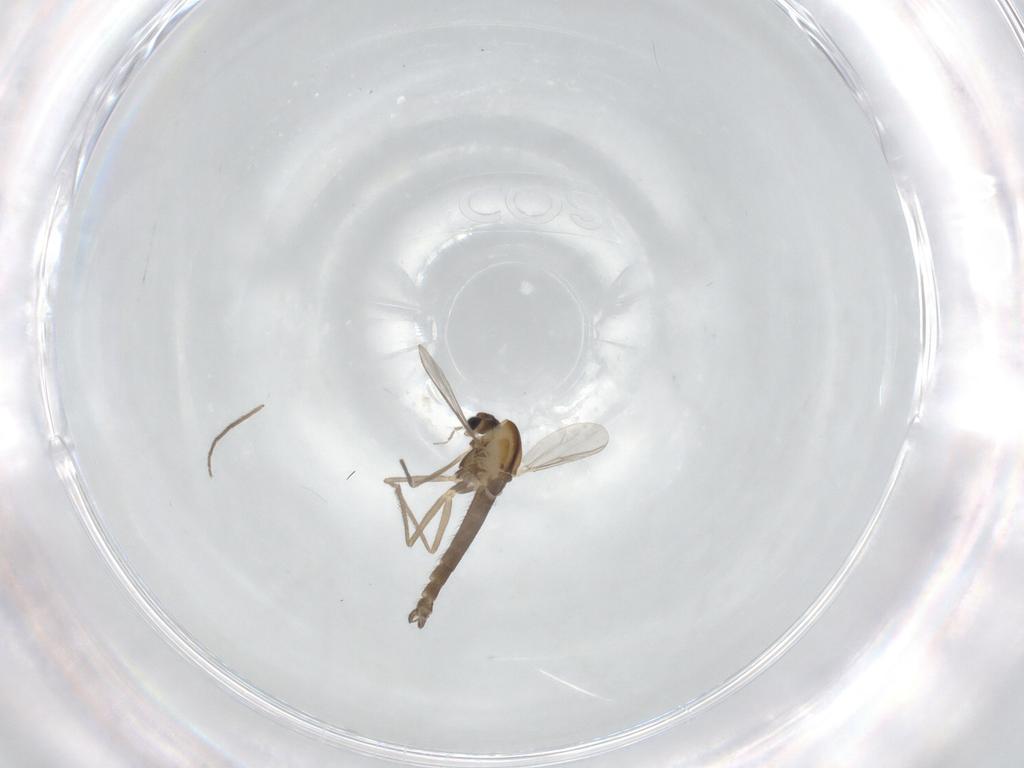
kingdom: Animalia
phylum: Arthropoda
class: Insecta
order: Diptera
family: Chironomidae
